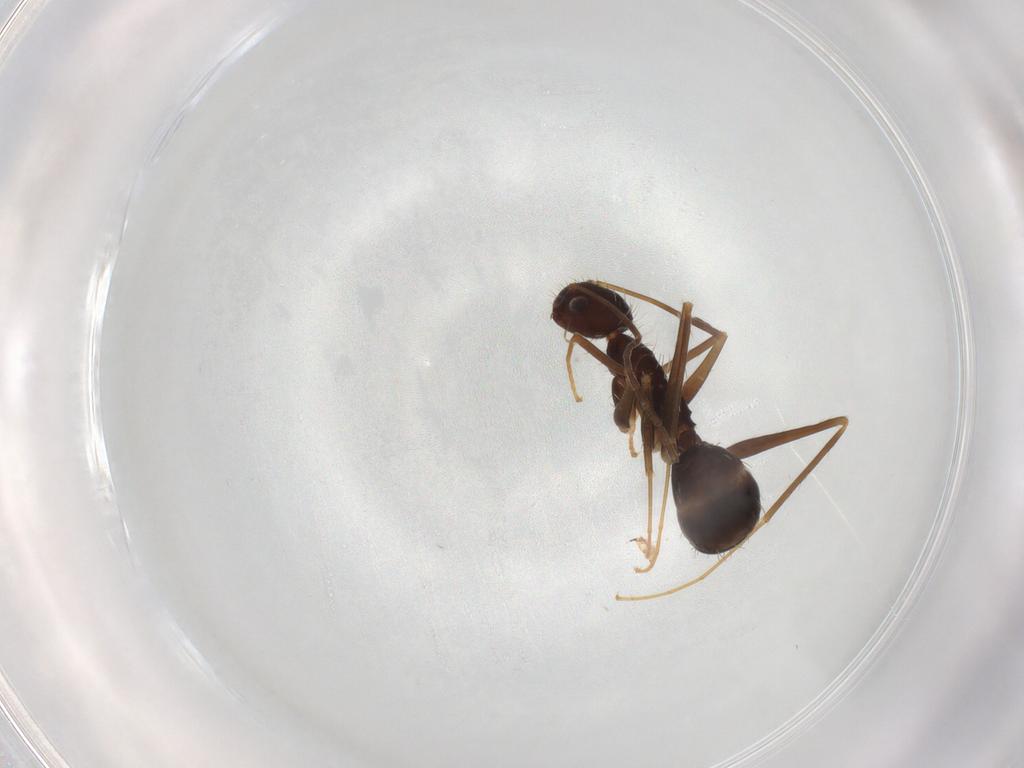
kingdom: Animalia
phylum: Arthropoda
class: Insecta
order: Hymenoptera
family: Formicidae
